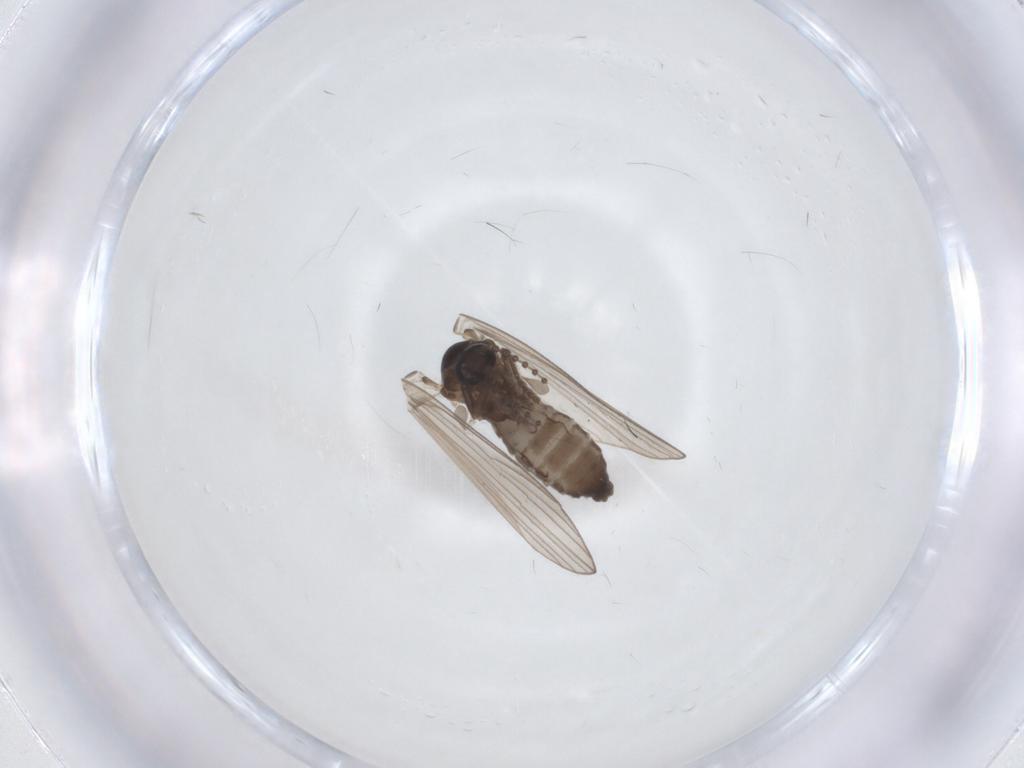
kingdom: Animalia
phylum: Arthropoda
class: Insecta
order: Diptera
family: Psychodidae
